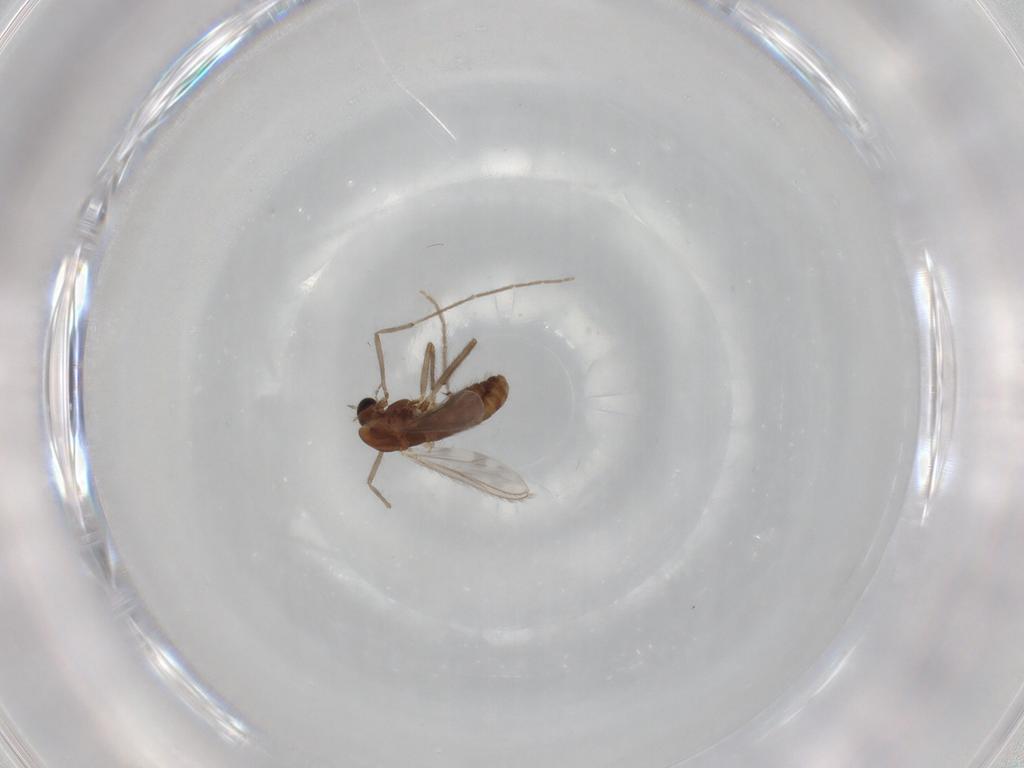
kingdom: Animalia
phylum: Arthropoda
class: Insecta
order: Diptera
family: Chironomidae
